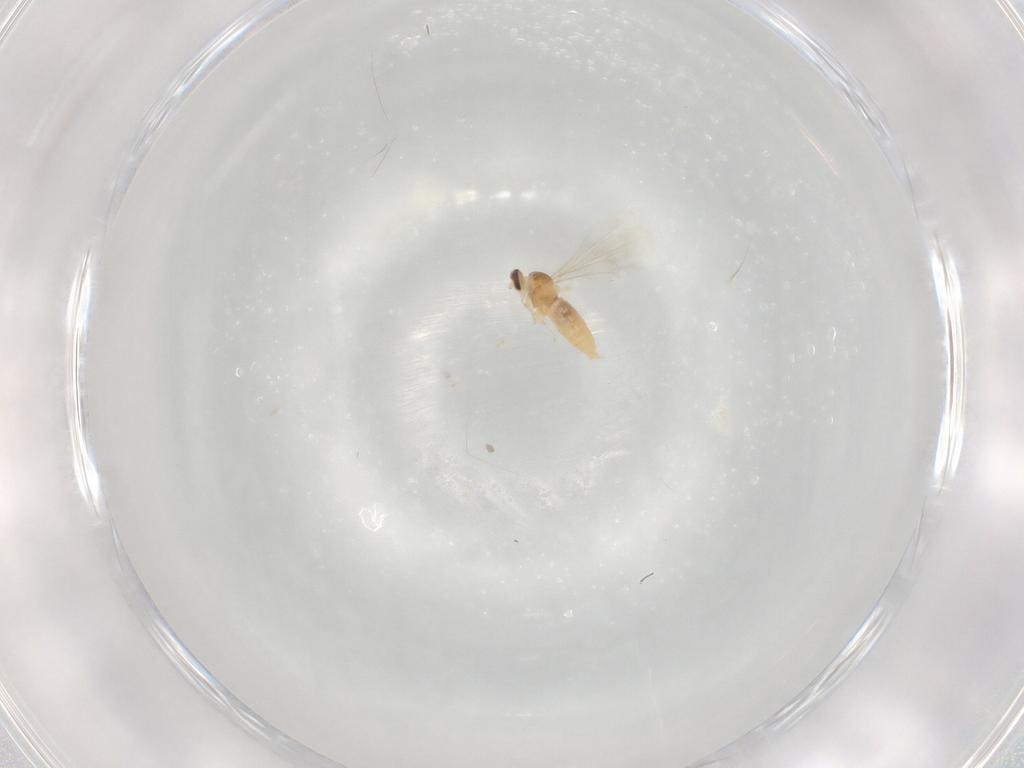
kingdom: Animalia
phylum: Arthropoda
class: Insecta
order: Diptera
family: Cecidomyiidae
